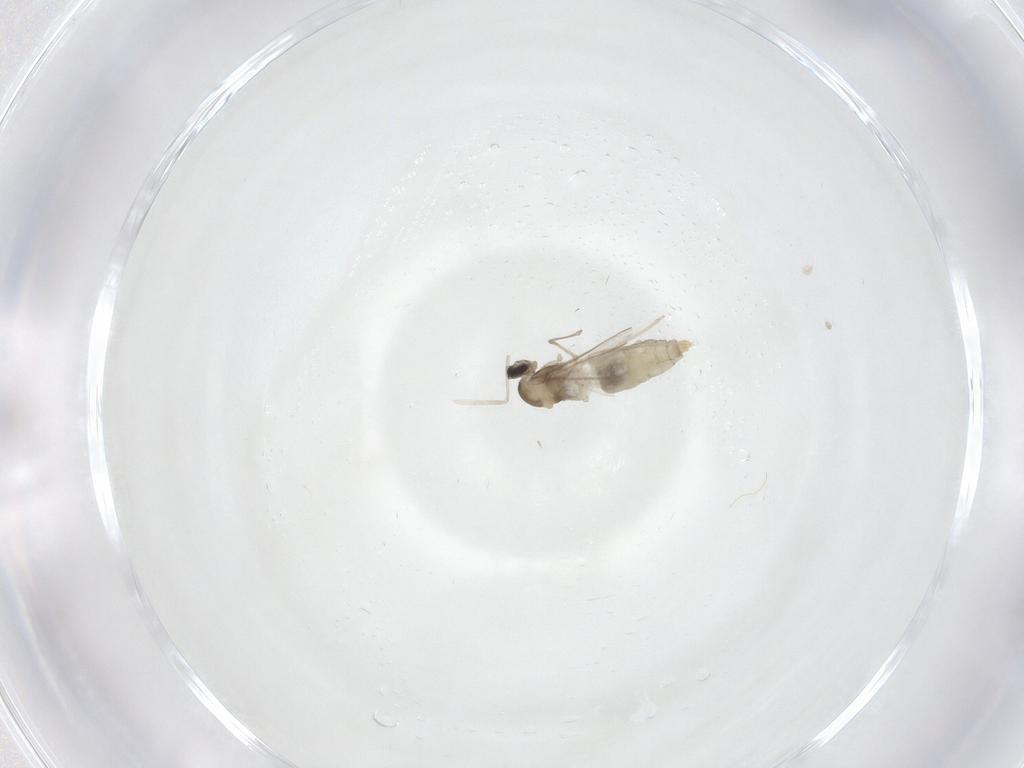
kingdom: Animalia
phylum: Arthropoda
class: Insecta
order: Diptera
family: Cecidomyiidae
